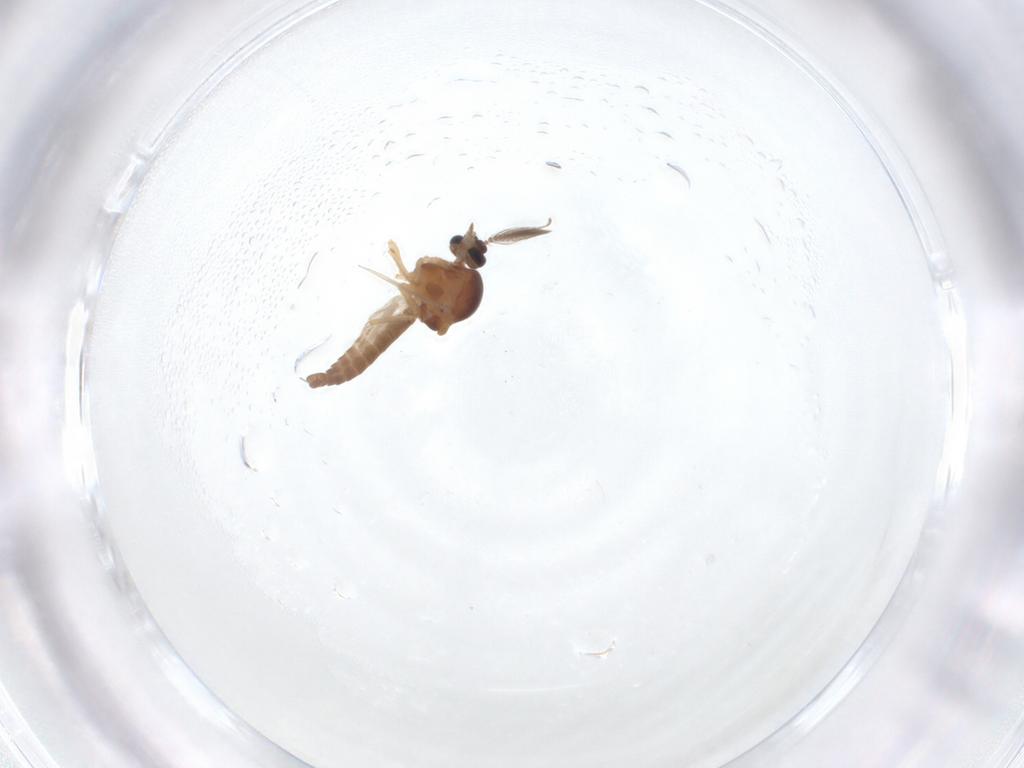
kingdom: Animalia
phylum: Arthropoda
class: Insecta
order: Diptera
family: Ceratopogonidae
